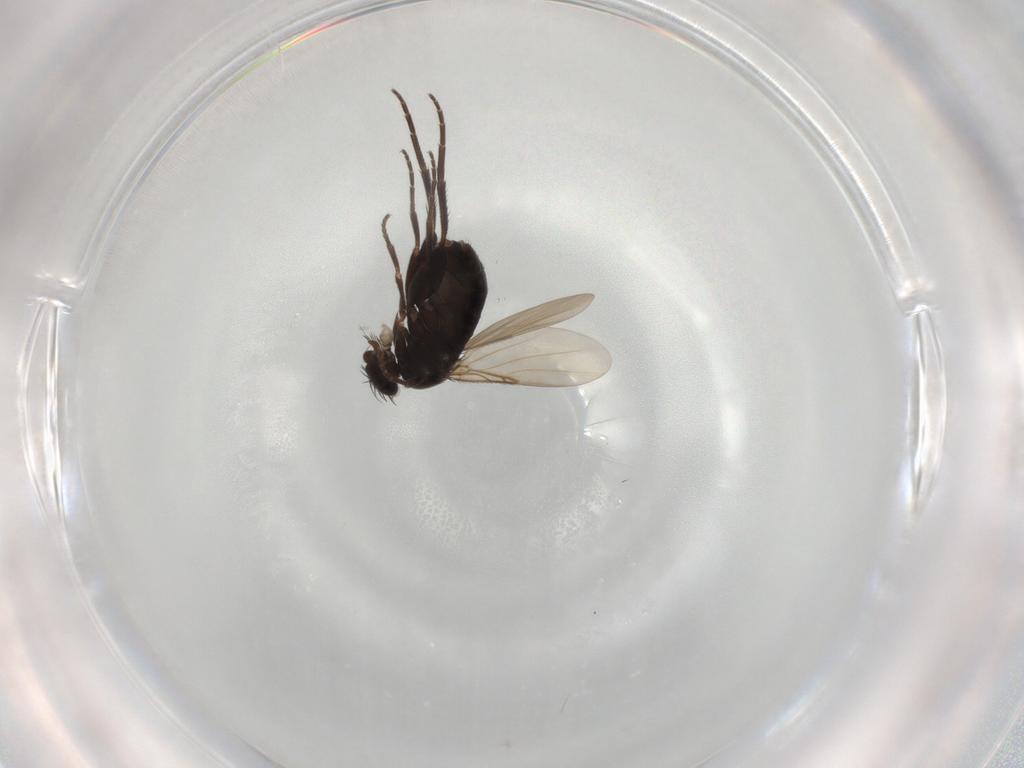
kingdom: Animalia
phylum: Arthropoda
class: Insecta
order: Diptera
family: Phoridae
